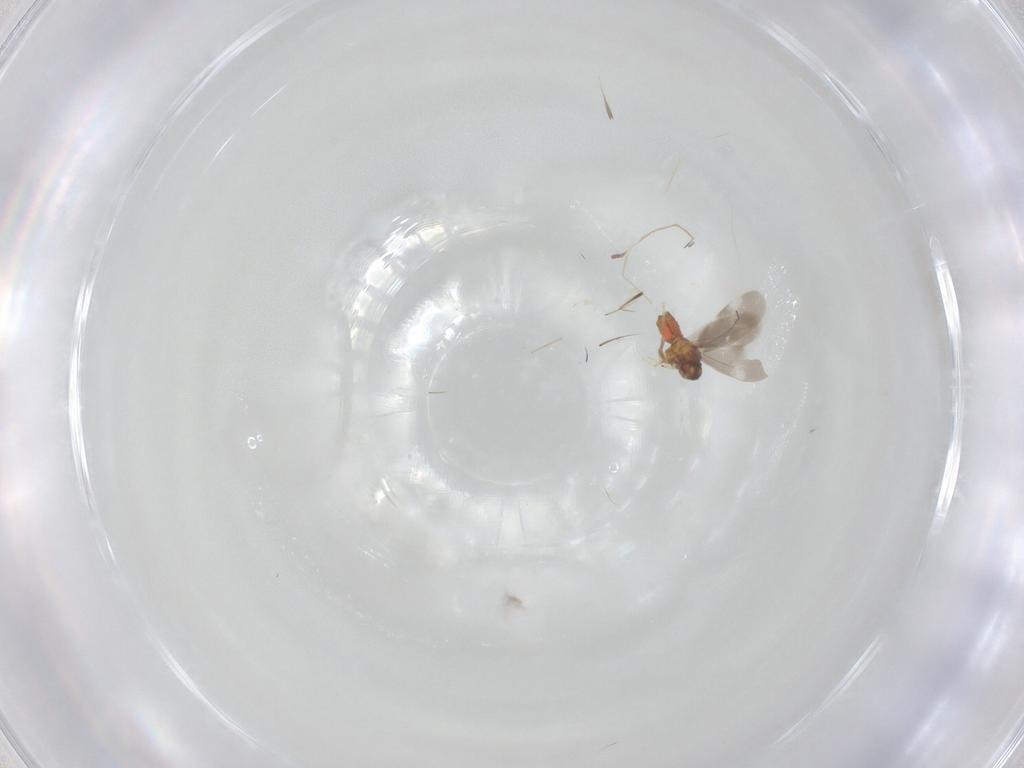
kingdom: Animalia
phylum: Arthropoda
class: Insecta
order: Hemiptera
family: Aleyrodidae
